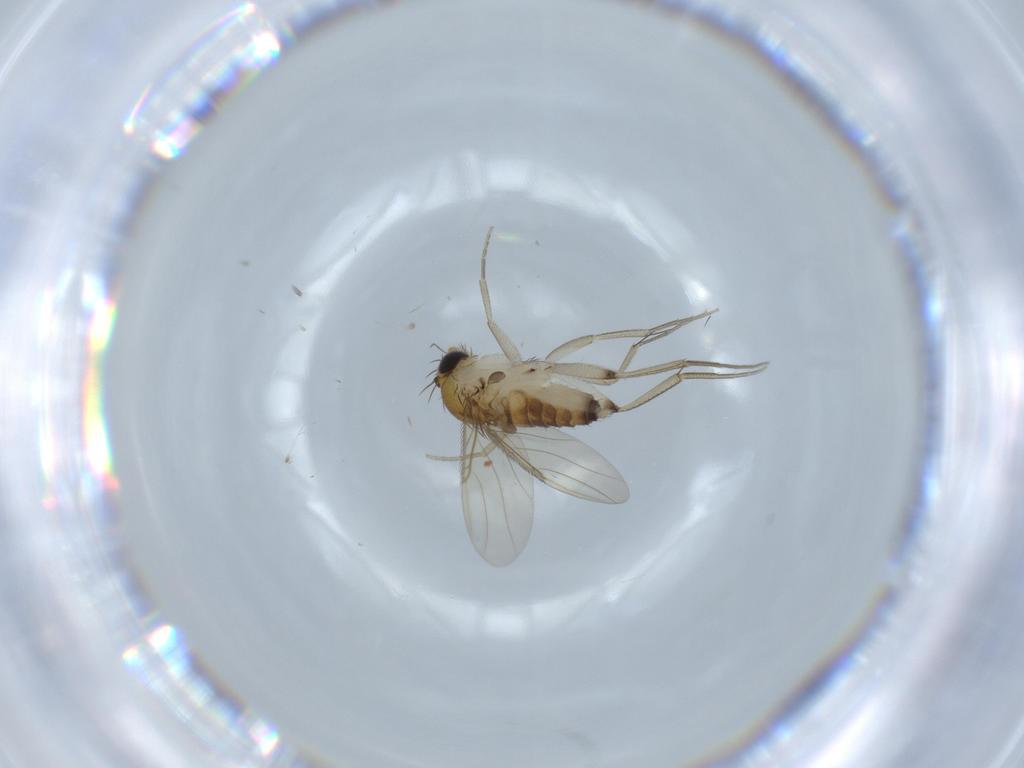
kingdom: Animalia
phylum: Arthropoda
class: Insecta
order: Diptera
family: Phoridae
